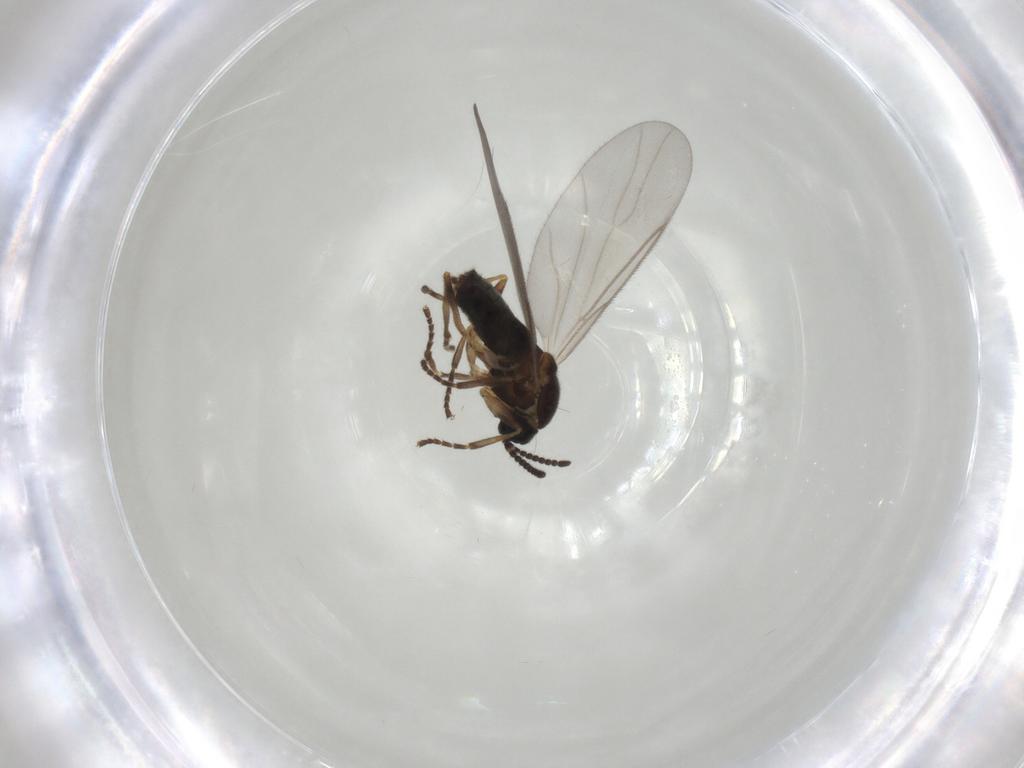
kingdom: Animalia
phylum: Arthropoda
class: Insecta
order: Diptera
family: Scatopsidae
